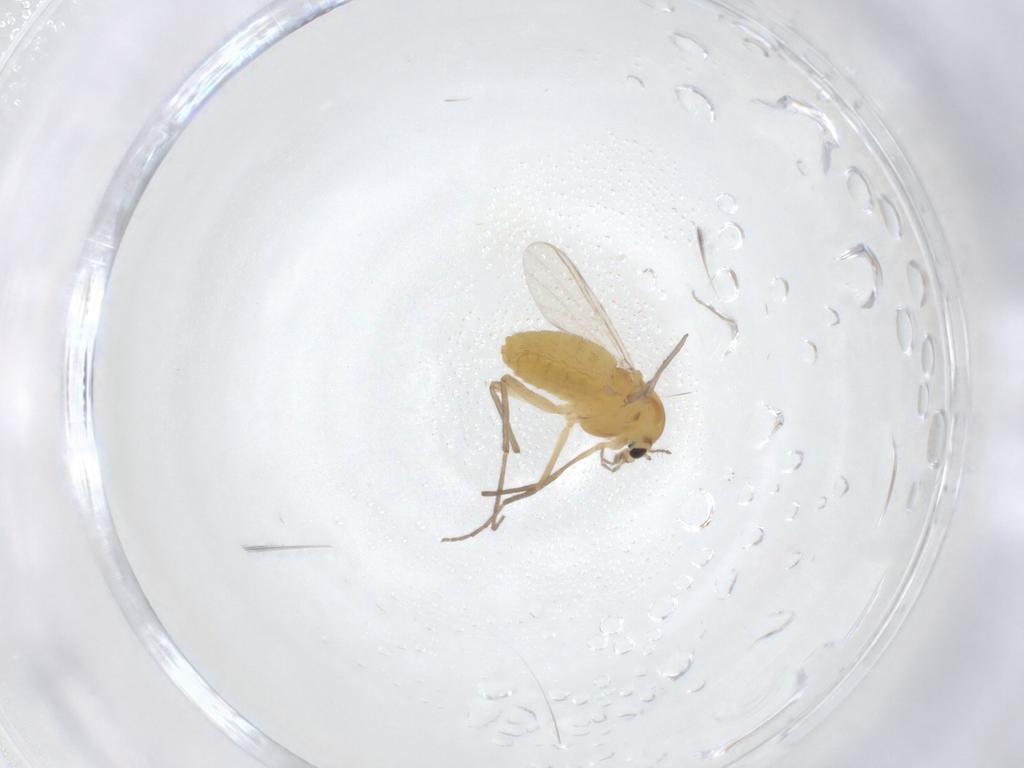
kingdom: Animalia
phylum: Arthropoda
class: Insecta
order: Diptera
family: Chironomidae
